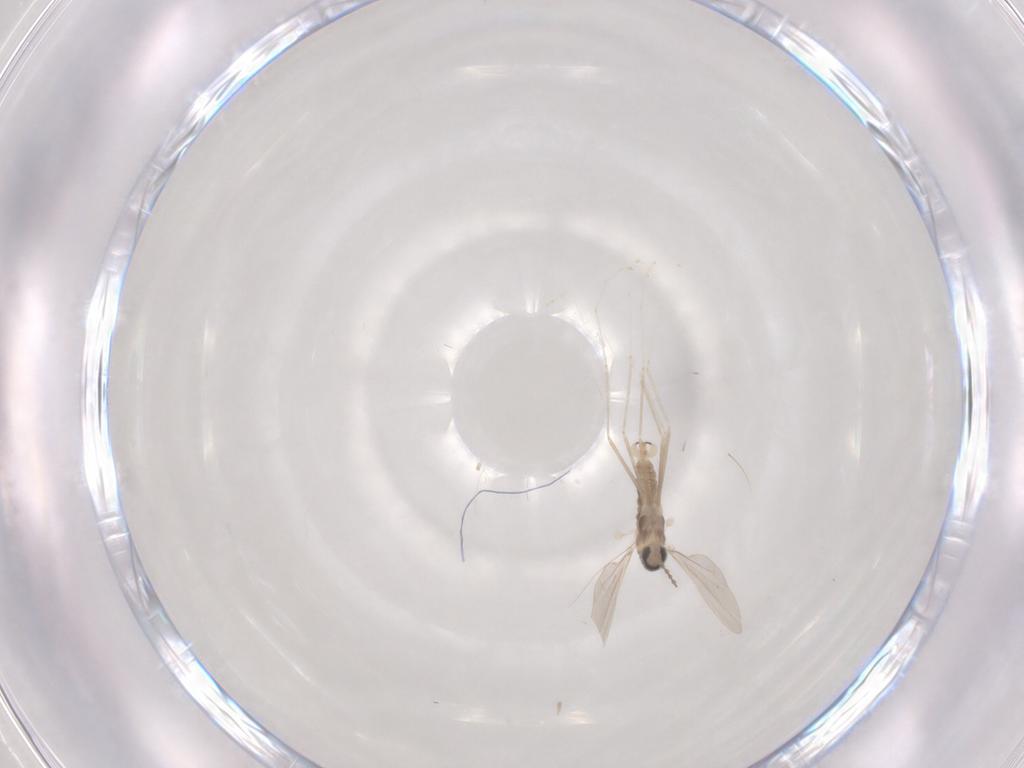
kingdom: Animalia
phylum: Arthropoda
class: Insecta
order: Diptera
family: Cecidomyiidae
